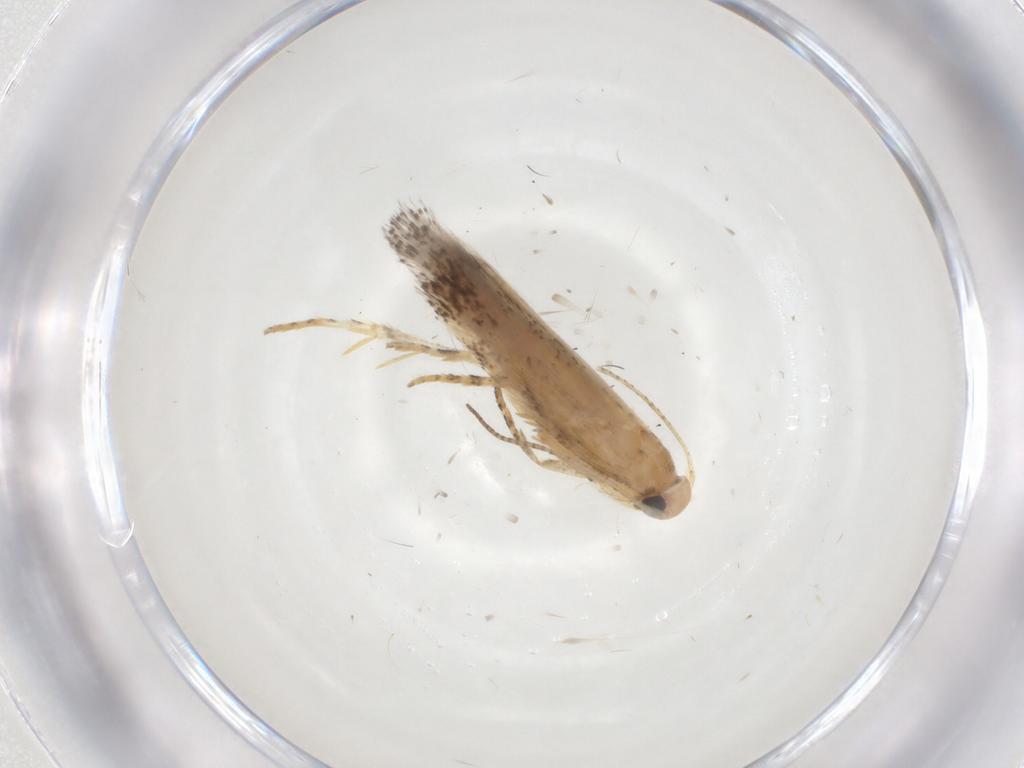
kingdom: Animalia
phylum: Arthropoda
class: Insecta
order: Lepidoptera
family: Gelechiidae
